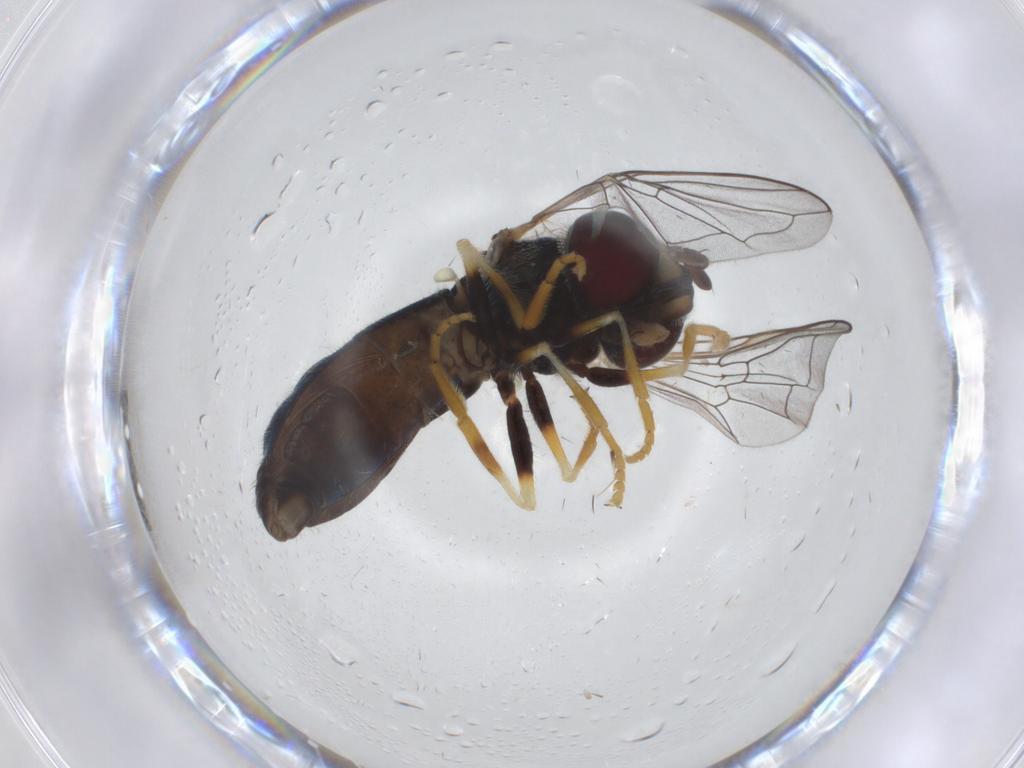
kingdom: Animalia
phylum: Arthropoda
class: Insecta
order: Diptera
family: Syrphidae
